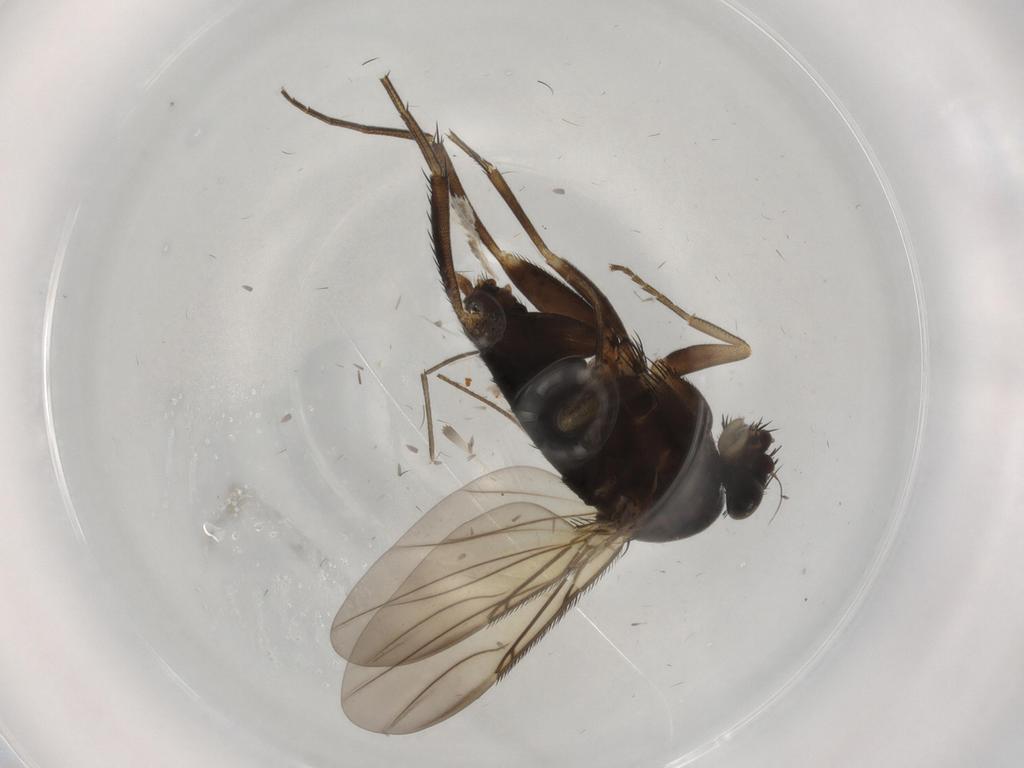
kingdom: Animalia
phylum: Arthropoda
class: Insecta
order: Diptera
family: Phoridae
